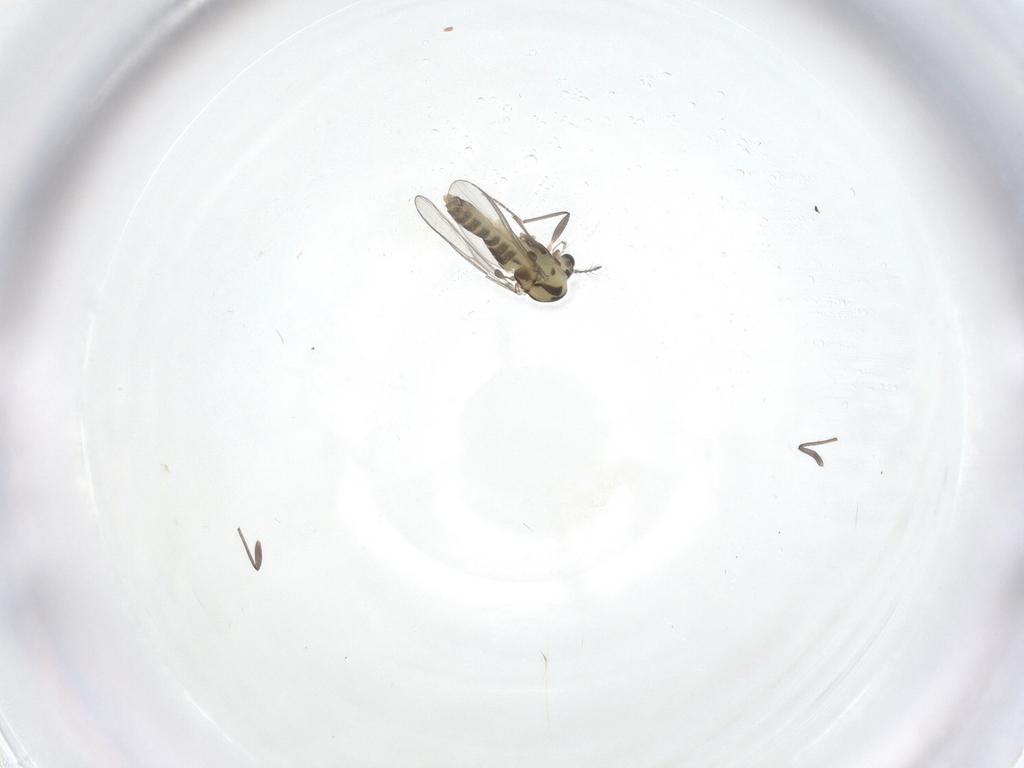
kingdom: Animalia
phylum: Arthropoda
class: Insecta
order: Diptera
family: Chironomidae
